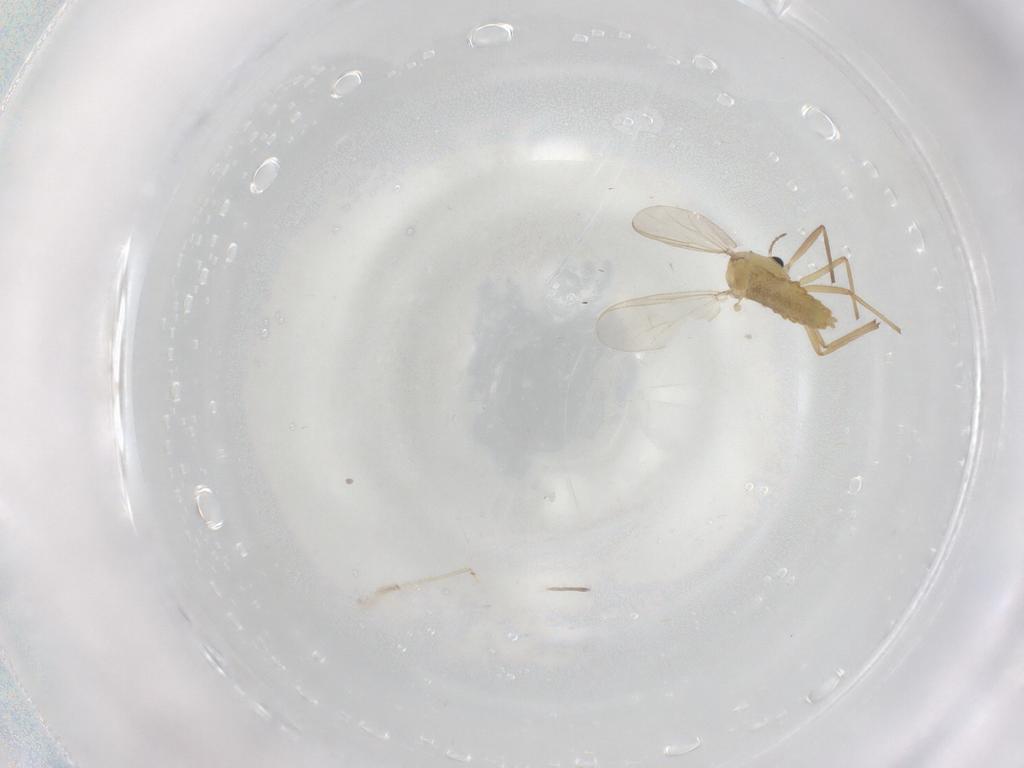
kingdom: Animalia
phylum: Arthropoda
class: Insecta
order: Diptera
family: Chironomidae
